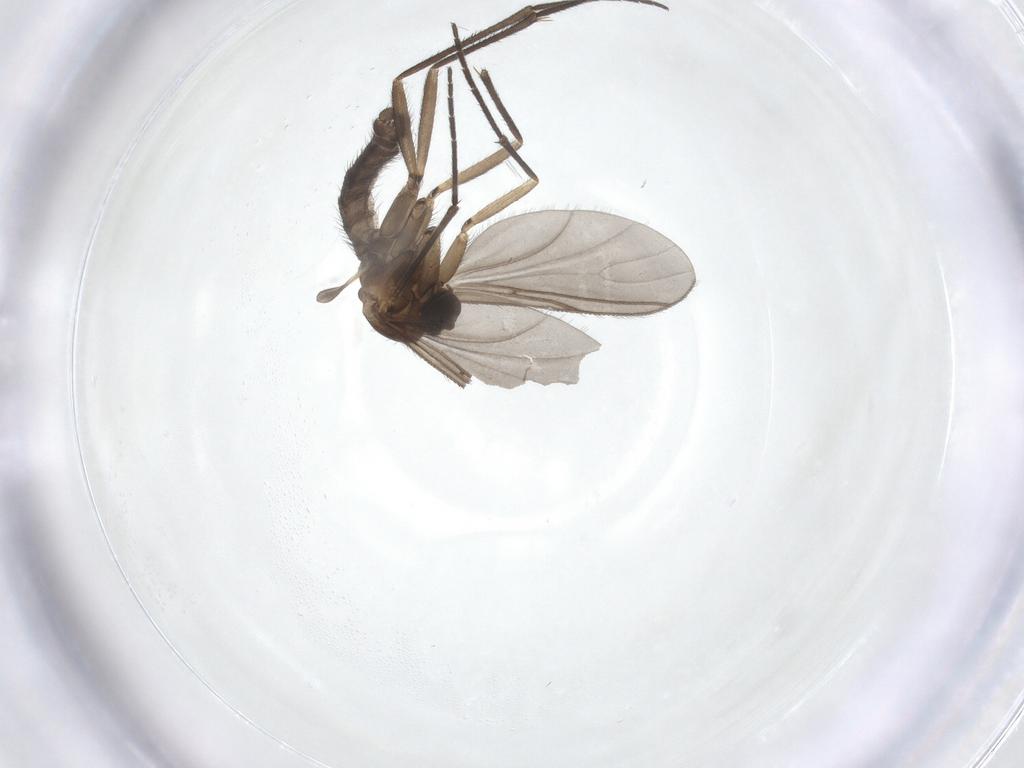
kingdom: Animalia
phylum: Arthropoda
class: Insecta
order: Diptera
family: Sciaridae
